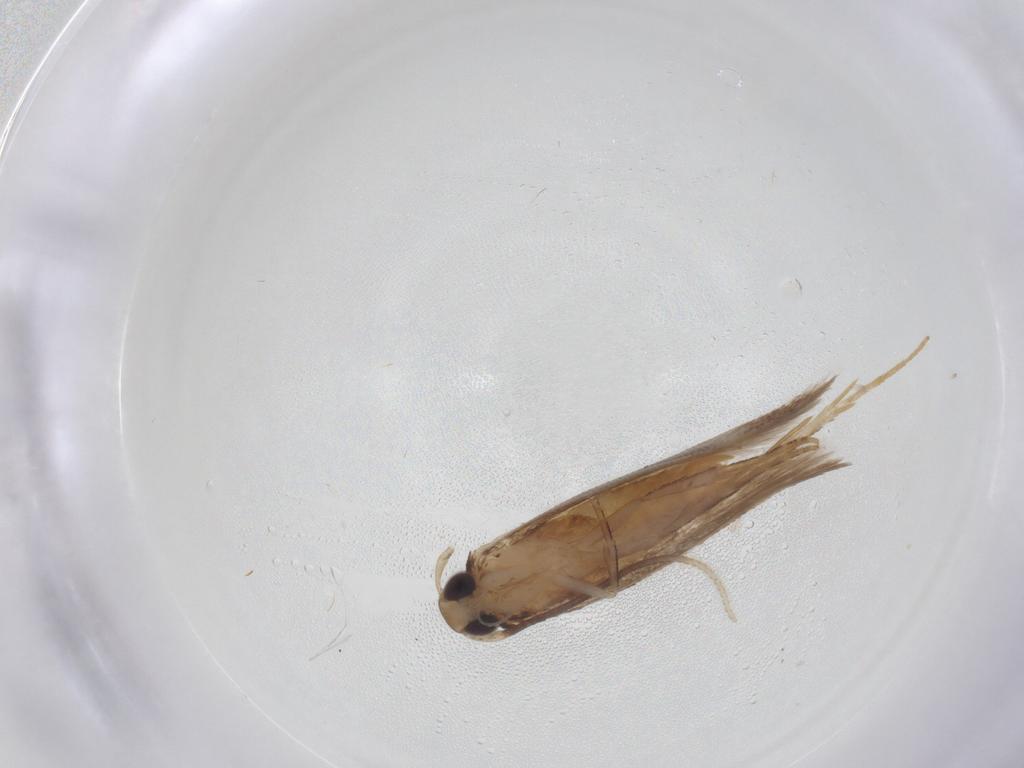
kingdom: Animalia
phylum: Arthropoda
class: Insecta
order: Lepidoptera
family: Cosmopterigidae
